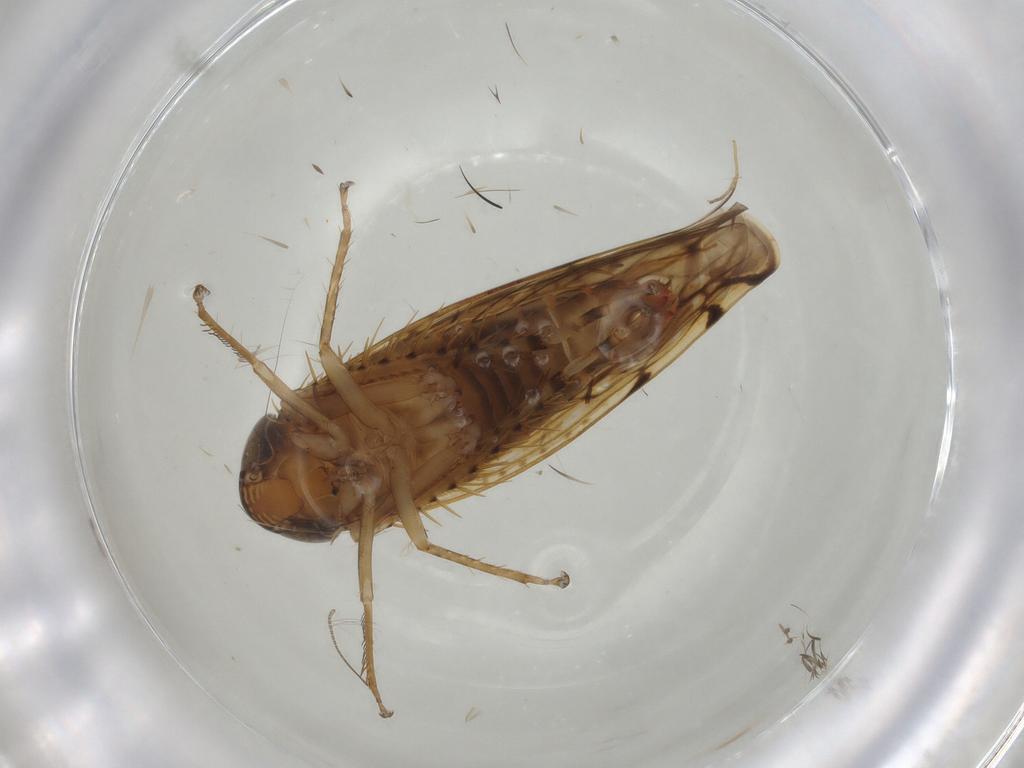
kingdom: Animalia
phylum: Arthropoda
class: Insecta
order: Hemiptera
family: Cicadellidae
